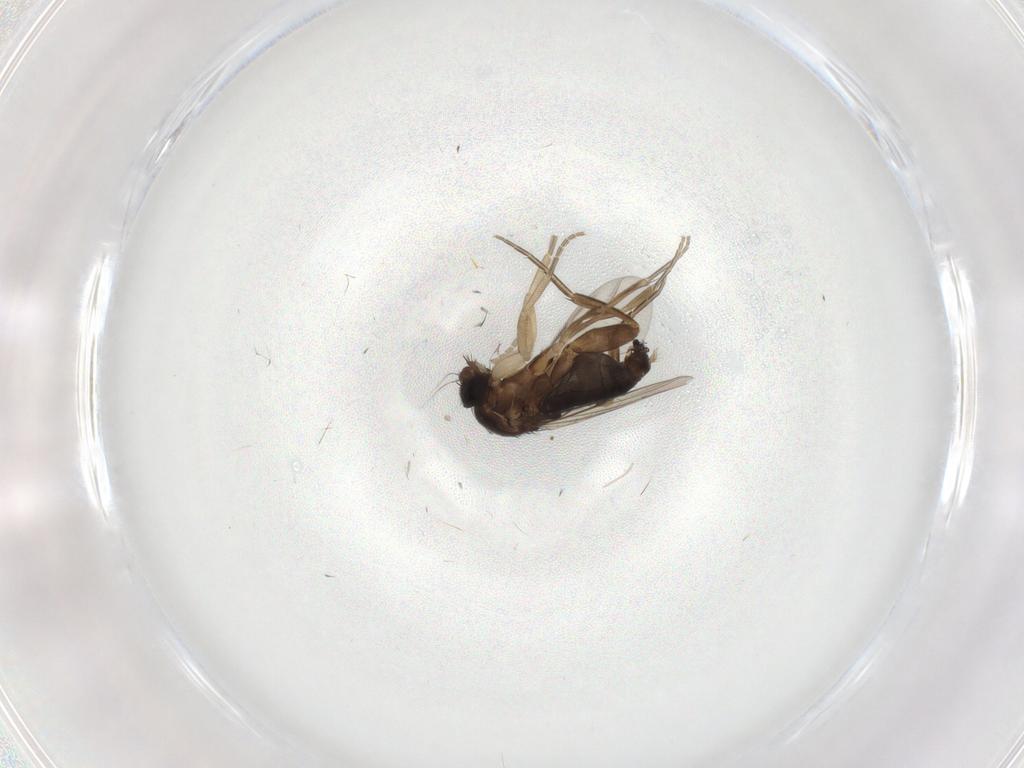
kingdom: Animalia
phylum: Arthropoda
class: Insecta
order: Diptera
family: Phoridae
